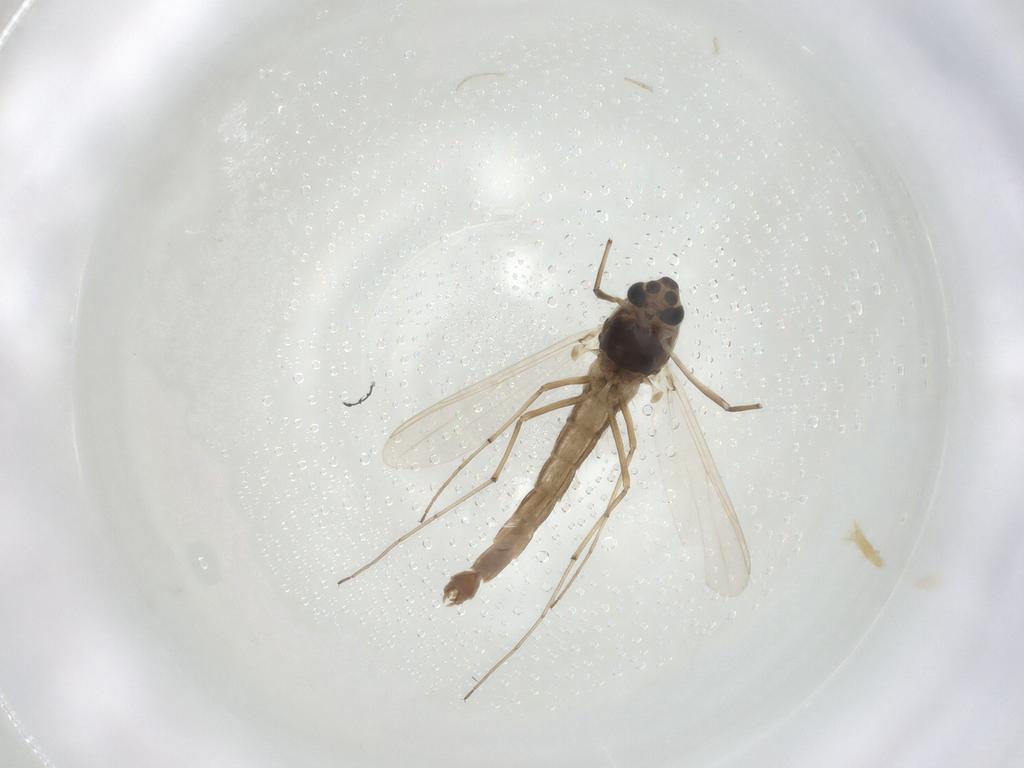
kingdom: Animalia
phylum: Arthropoda
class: Insecta
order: Diptera
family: Chironomidae
